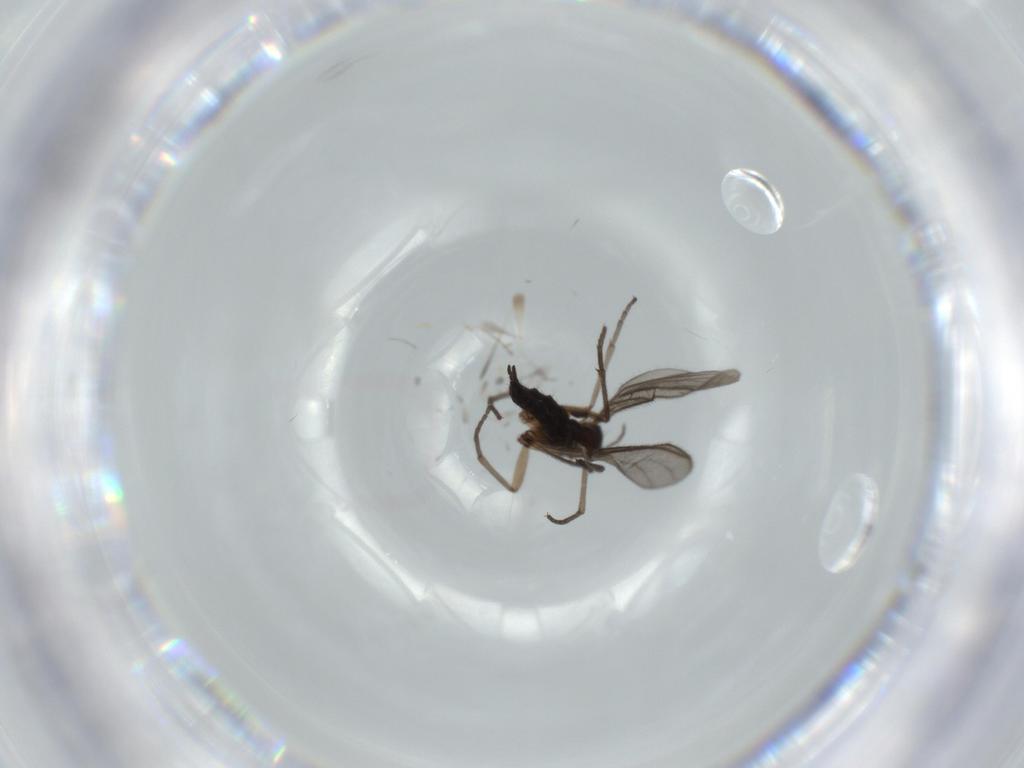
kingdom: Animalia
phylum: Arthropoda
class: Insecta
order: Diptera
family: Sciaridae
